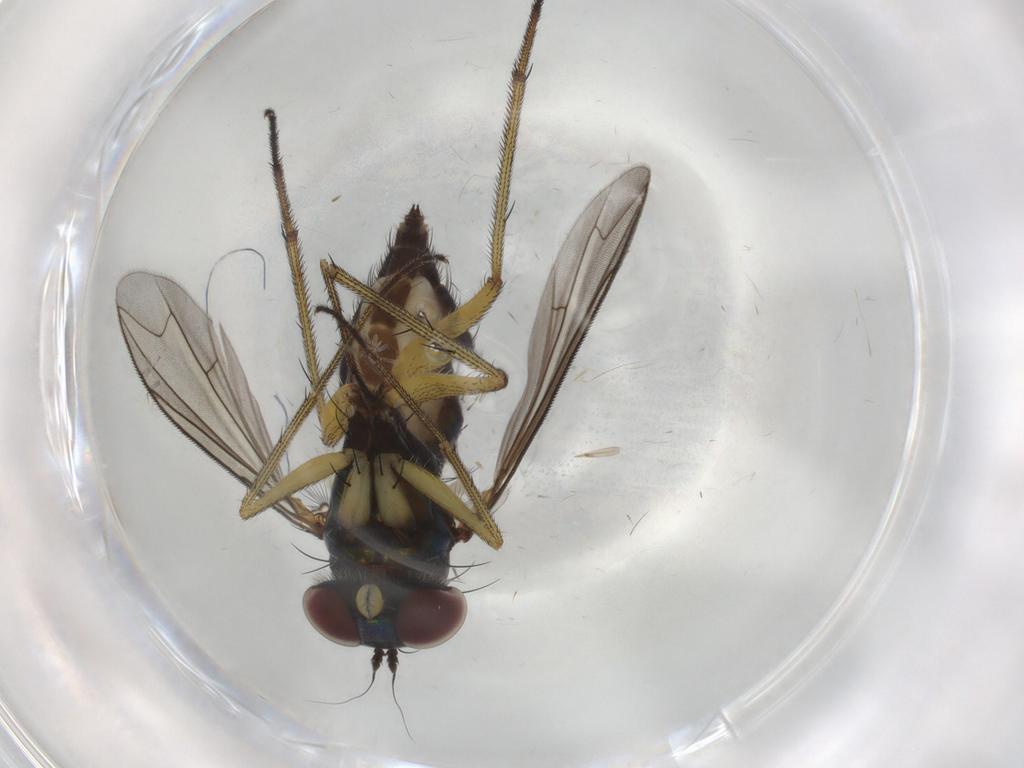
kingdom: Animalia
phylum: Arthropoda
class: Insecta
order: Diptera
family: Dolichopodidae
